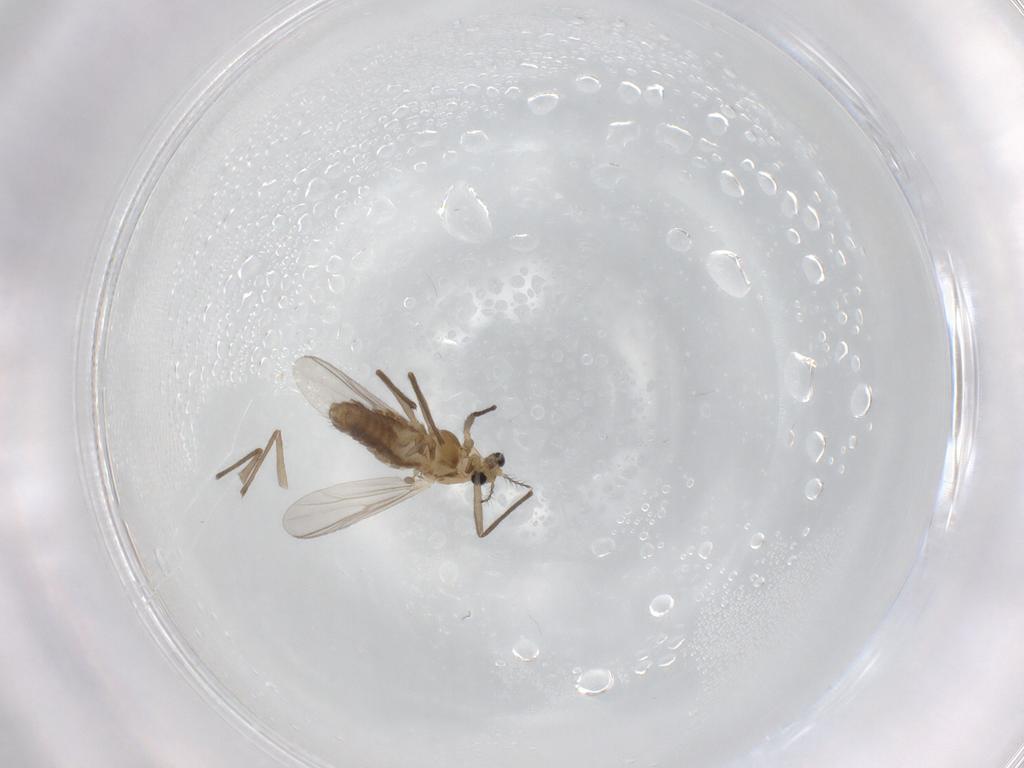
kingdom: Animalia
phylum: Arthropoda
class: Insecta
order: Diptera
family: Chironomidae
